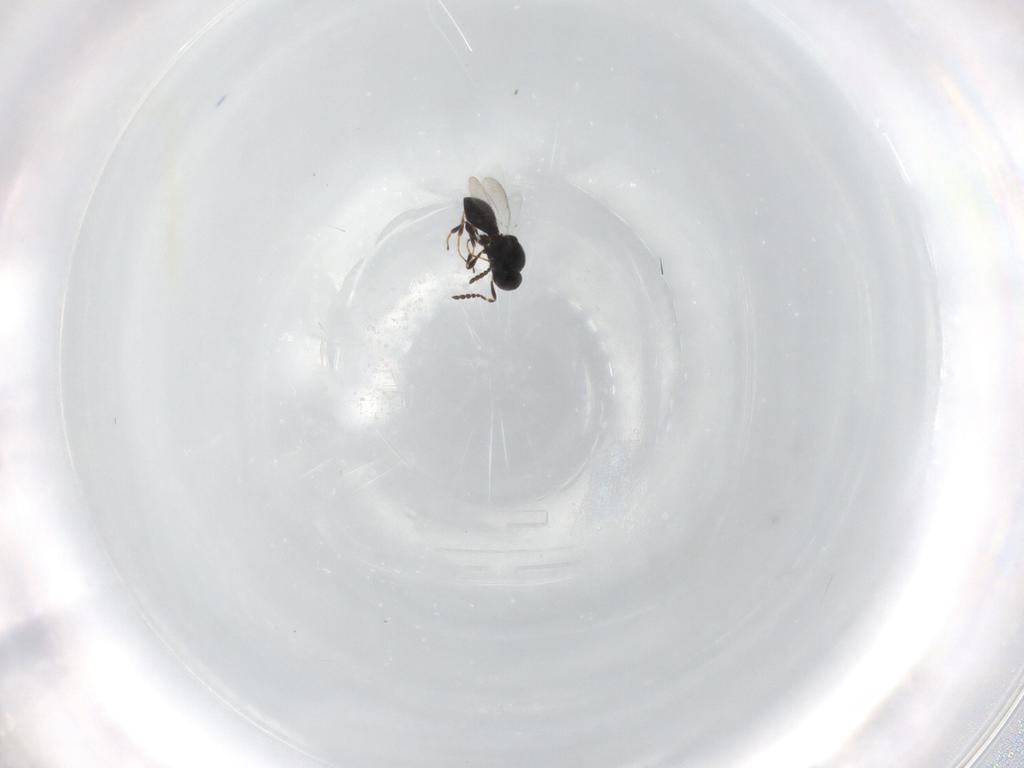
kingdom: Animalia
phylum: Arthropoda
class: Insecta
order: Hymenoptera
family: Platygastridae
